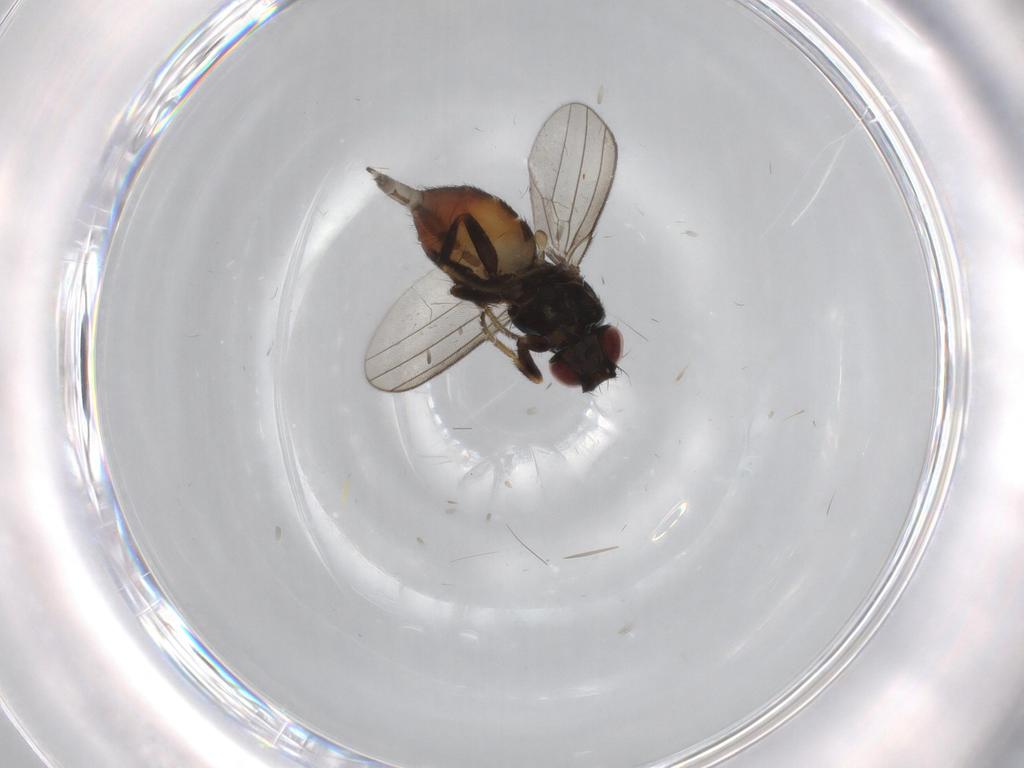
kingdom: Animalia
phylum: Arthropoda
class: Insecta
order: Diptera
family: Milichiidae
